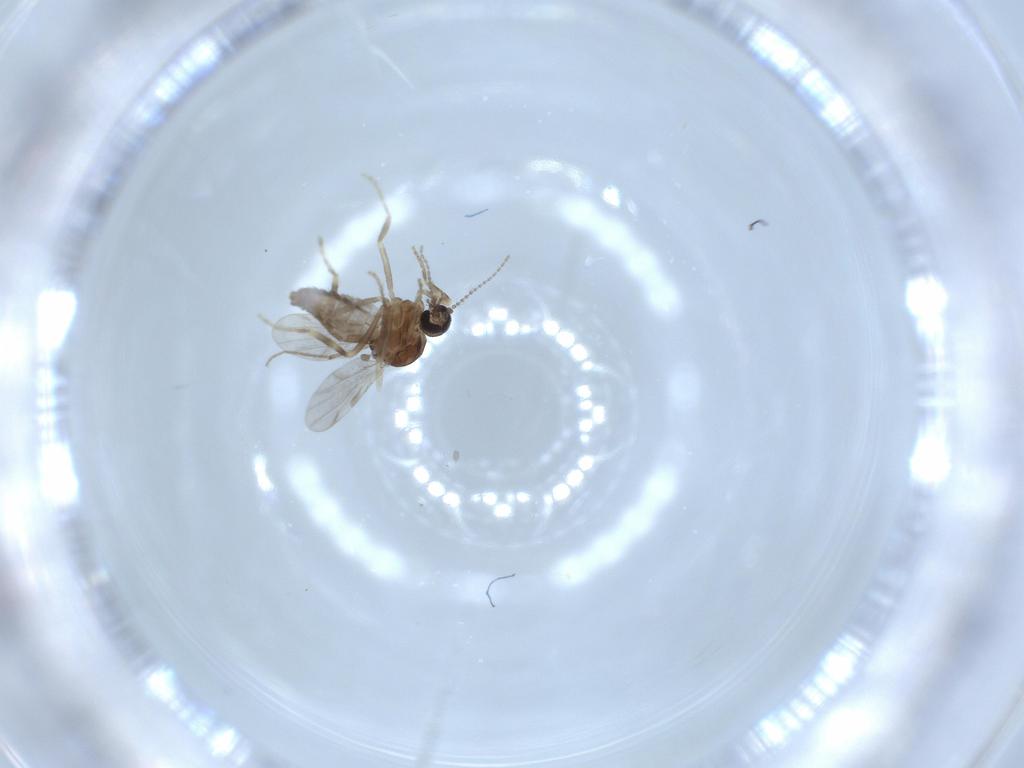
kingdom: Animalia
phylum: Arthropoda
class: Insecta
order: Diptera
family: Ceratopogonidae
